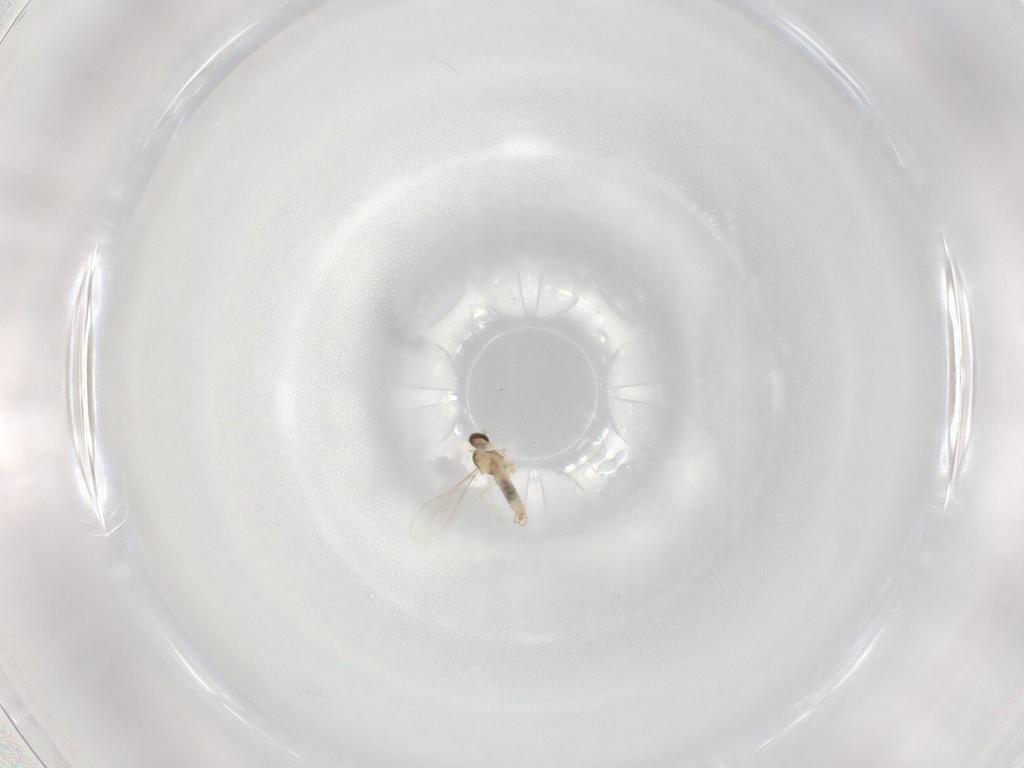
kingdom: Animalia
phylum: Arthropoda
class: Insecta
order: Diptera
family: Cecidomyiidae
